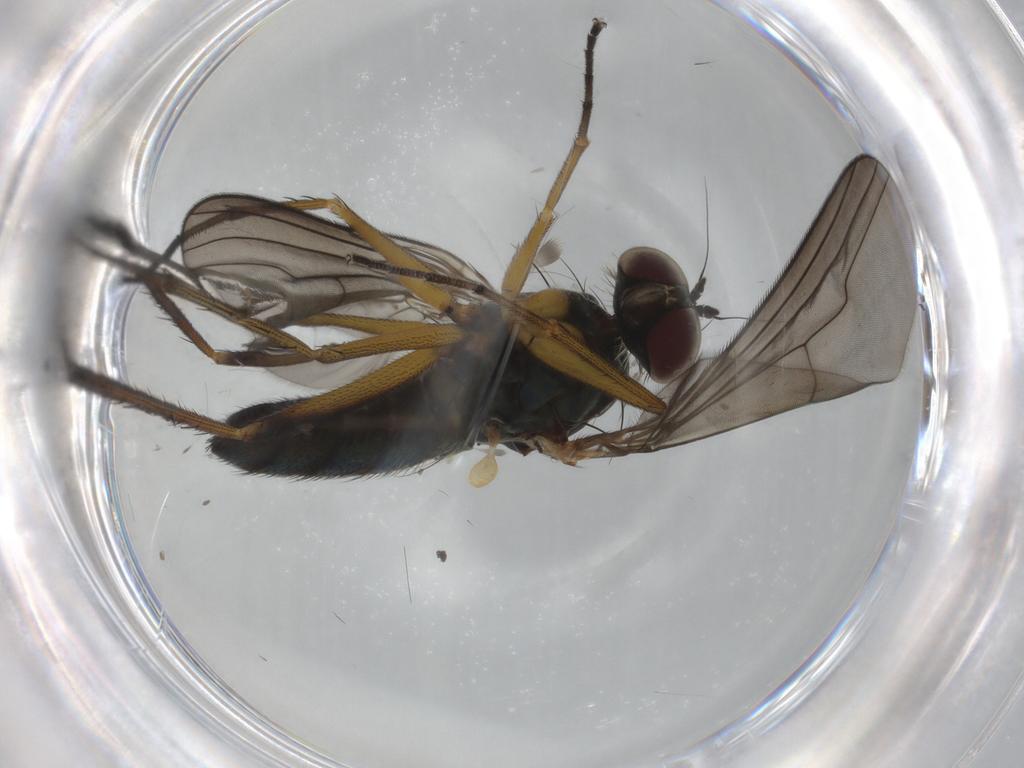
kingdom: Animalia
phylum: Arthropoda
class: Insecta
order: Diptera
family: Dolichopodidae
